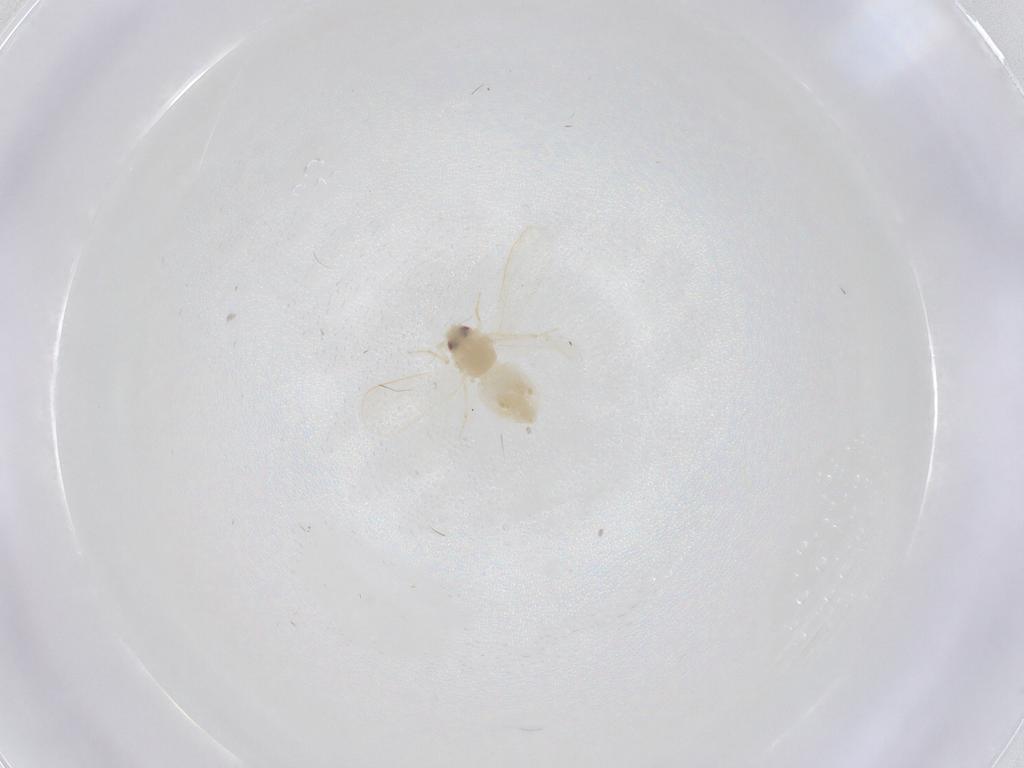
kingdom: Animalia
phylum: Arthropoda
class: Insecta
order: Hemiptera
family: Aleyrodidae
